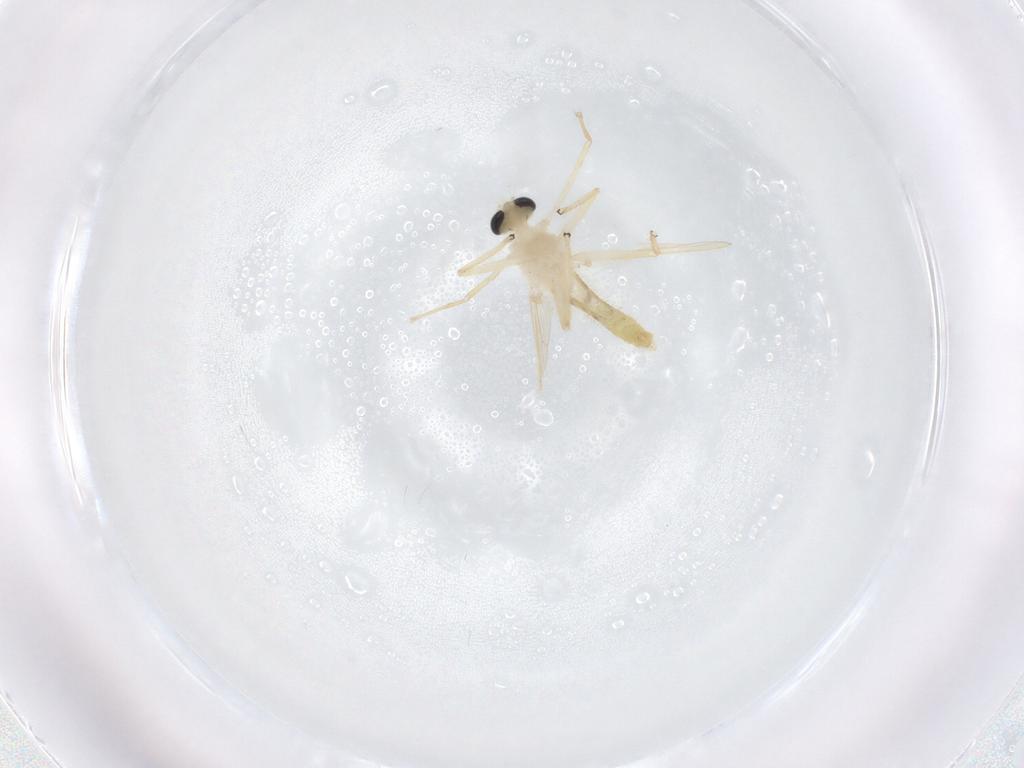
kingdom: Animalia
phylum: Arthropoda
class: Insecta
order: Diptera
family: Chironomidae
